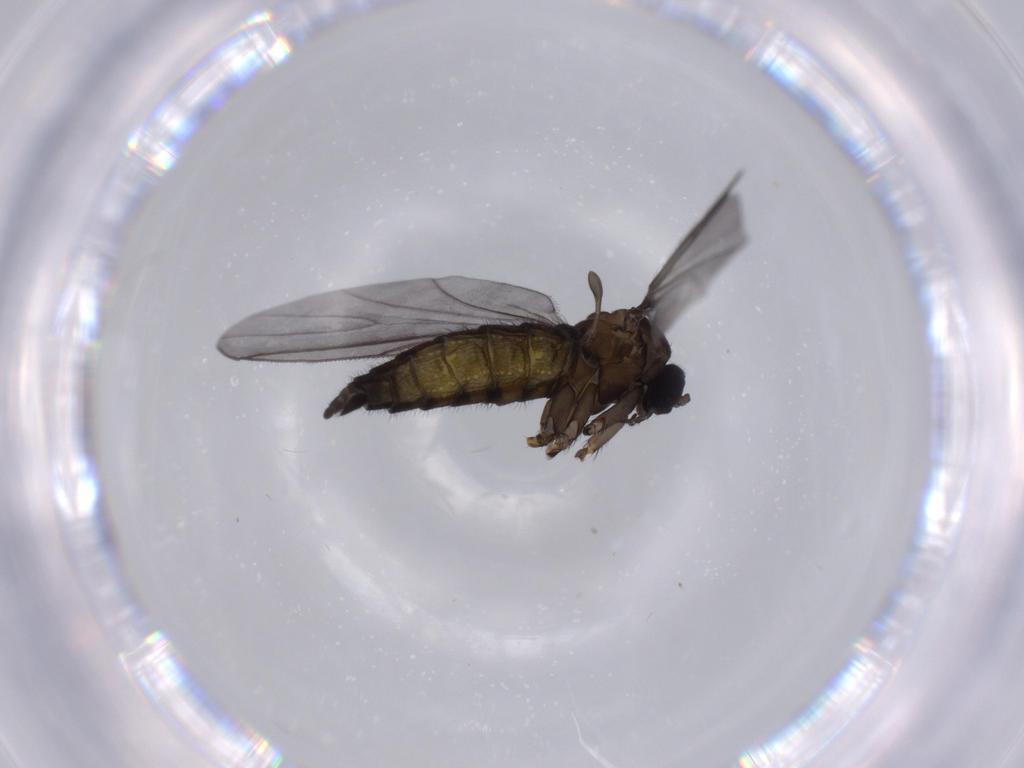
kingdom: Animalia
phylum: Arthropoda
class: Insecta
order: Diptera
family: Sciaridae
